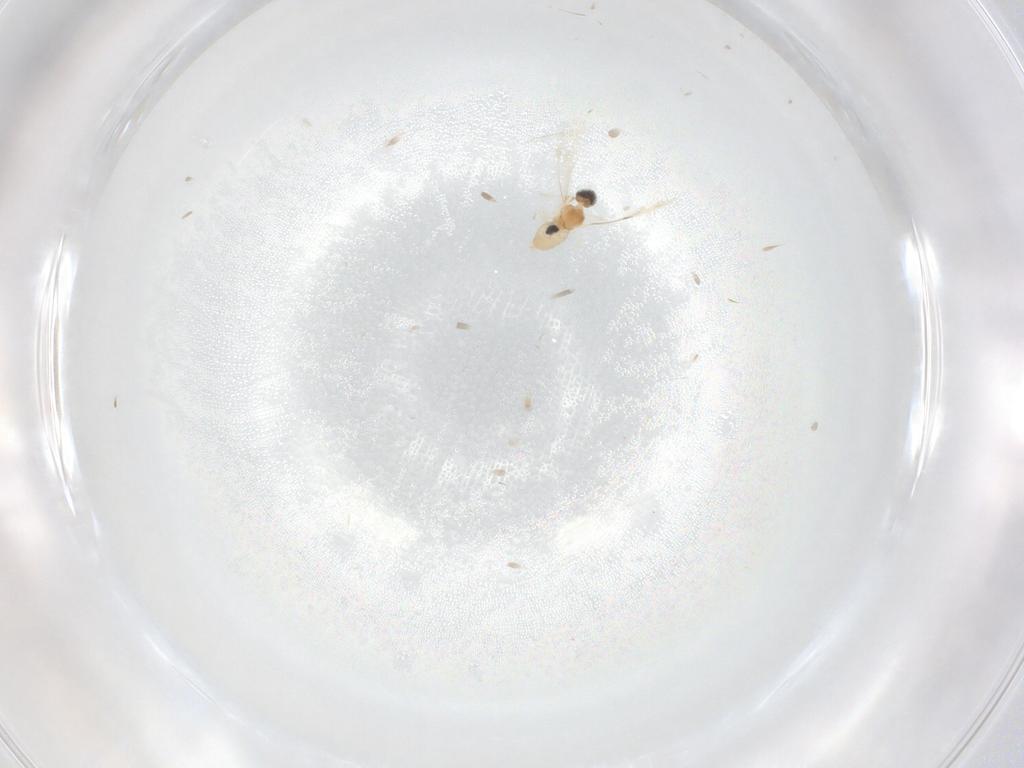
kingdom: Animalia
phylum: Arthropoda
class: Insecta
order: Diptera
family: Cecidomyiidae
